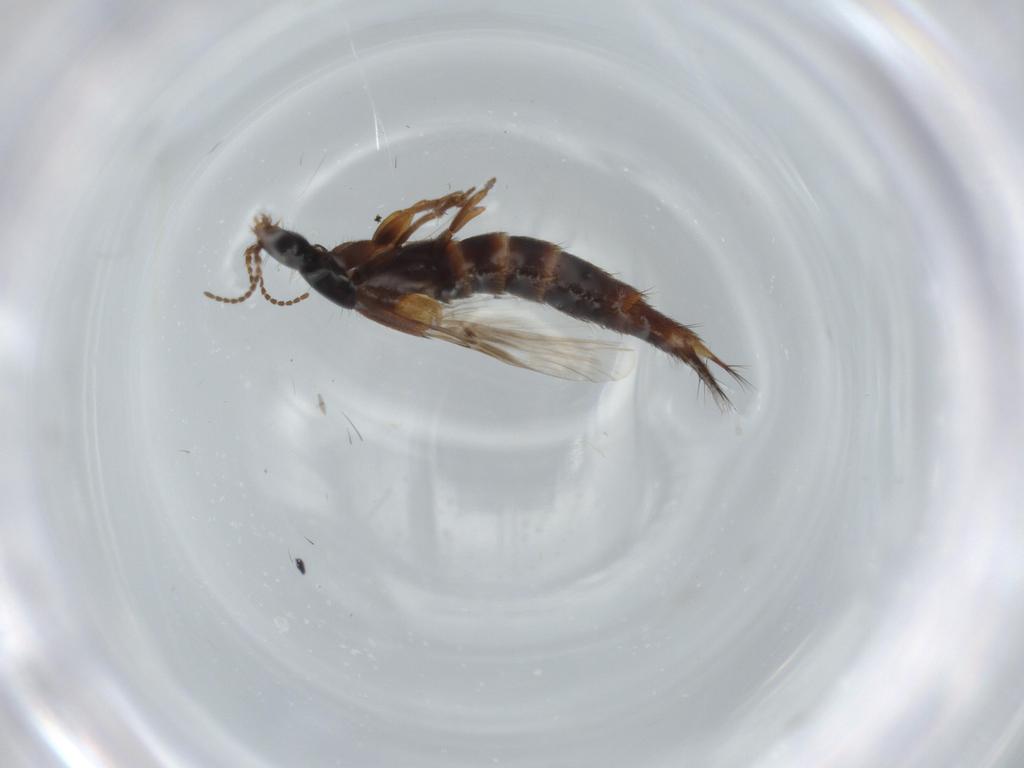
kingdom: Animalia
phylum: Arthropoda
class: Insecta
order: Coleoptera
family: Staphylinidae
